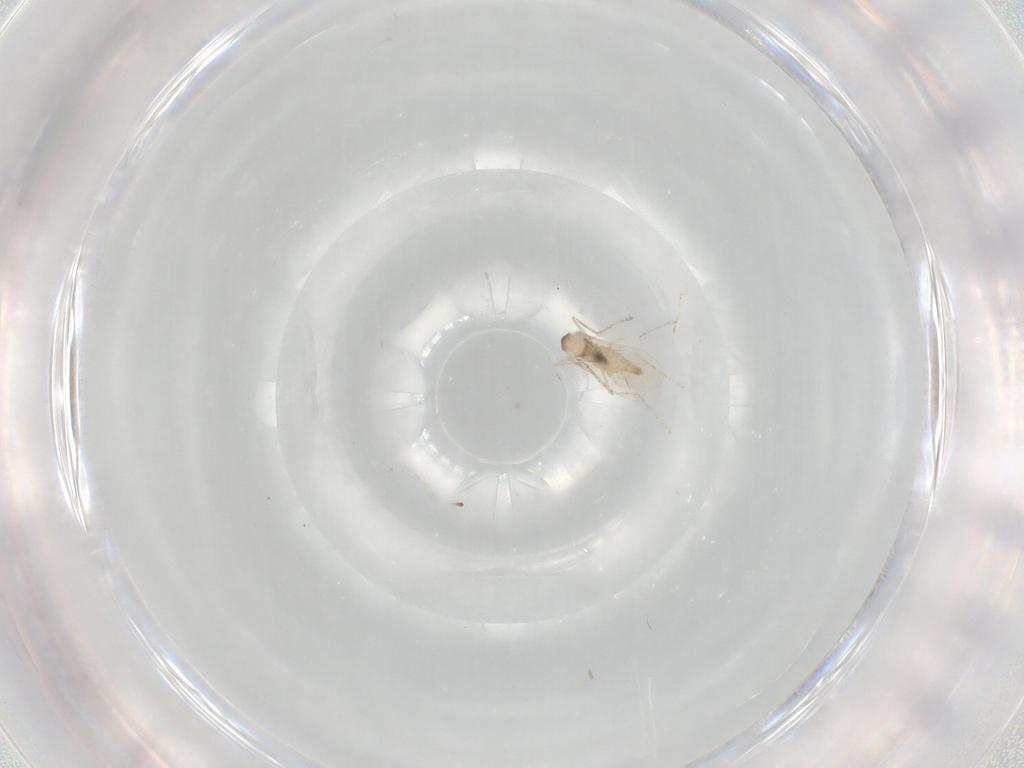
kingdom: Animalia
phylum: Arthropoda
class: Insecta
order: Diptera
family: Cecidomyiidae
